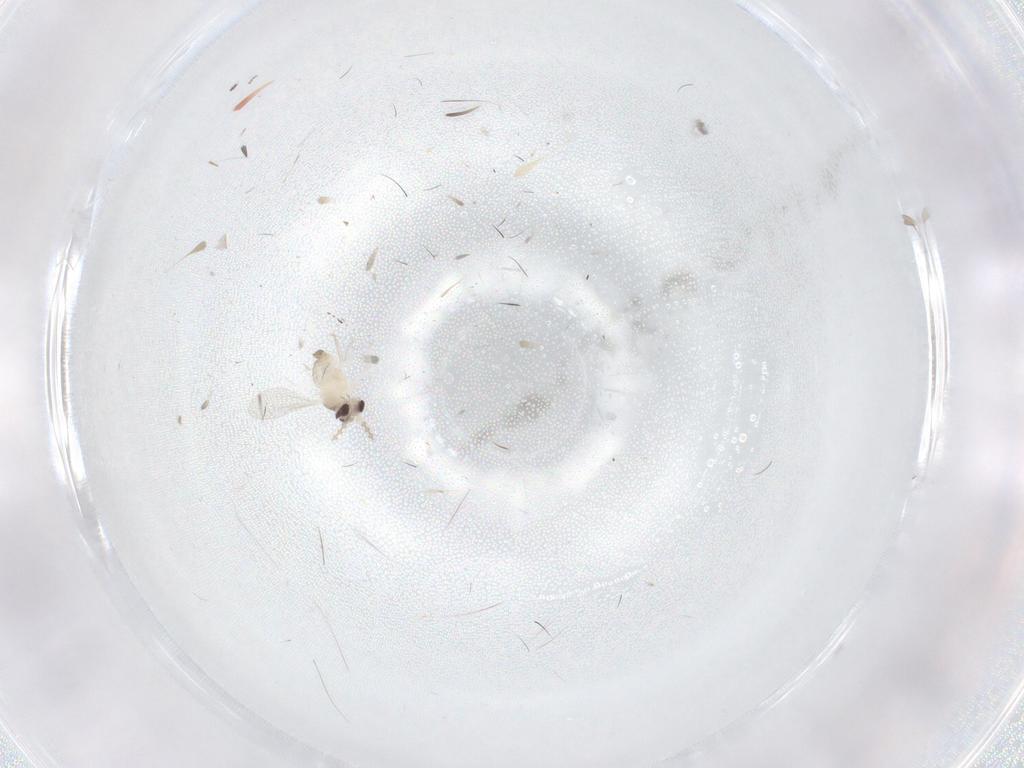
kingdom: Animalia
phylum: Arthropoda
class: Insecta
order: Diptera
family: Cecidomyiidae
